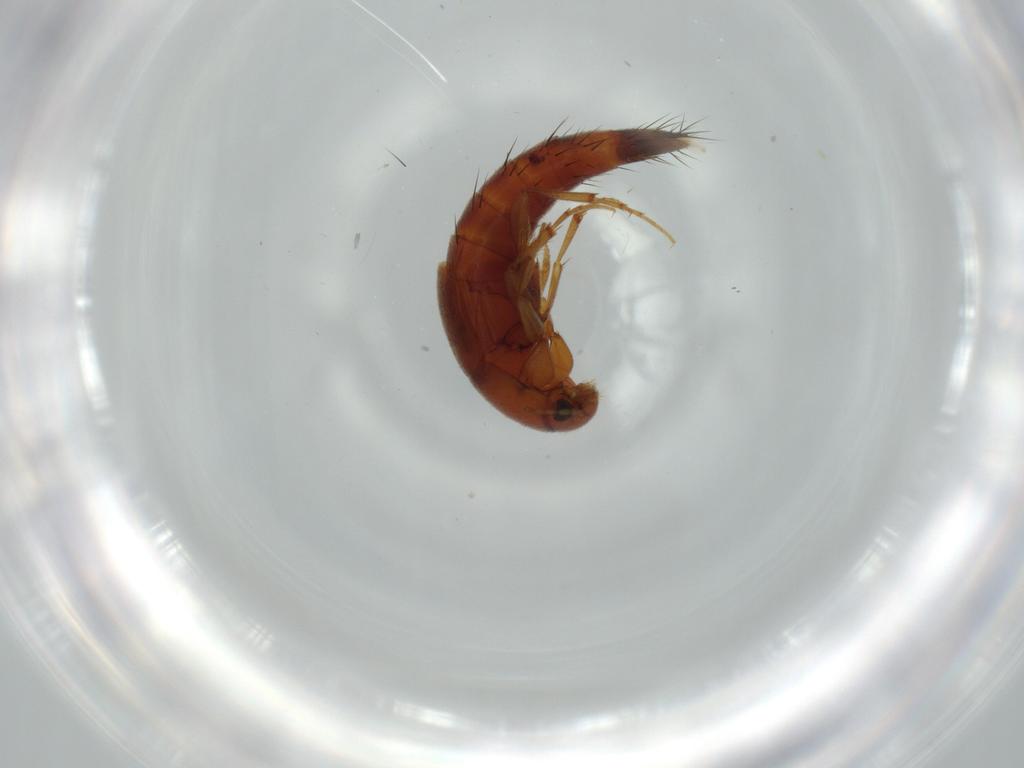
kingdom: Animalia
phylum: Arthropoda
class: Insecta
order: Coleoptera
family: Staphylinidae
